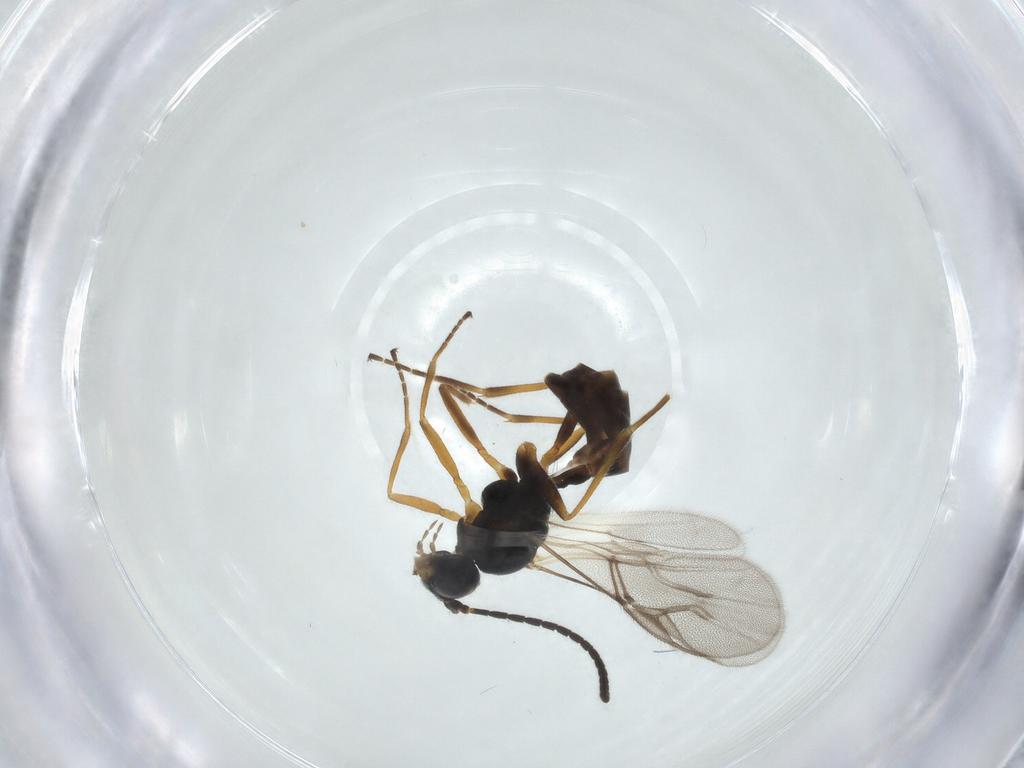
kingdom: Animalia
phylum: Arthropoda
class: Insecta
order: Hymenoptera
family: Braconidae
